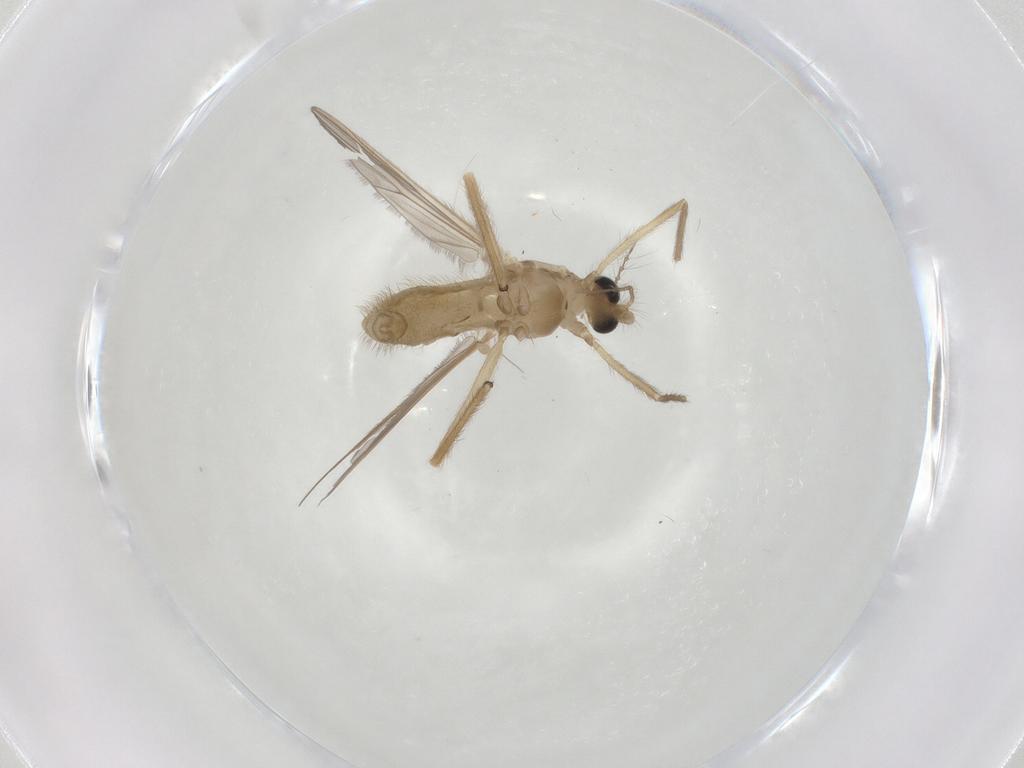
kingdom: Animalia
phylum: Arthropoda
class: Insecta
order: Diptera
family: Chironomidae
